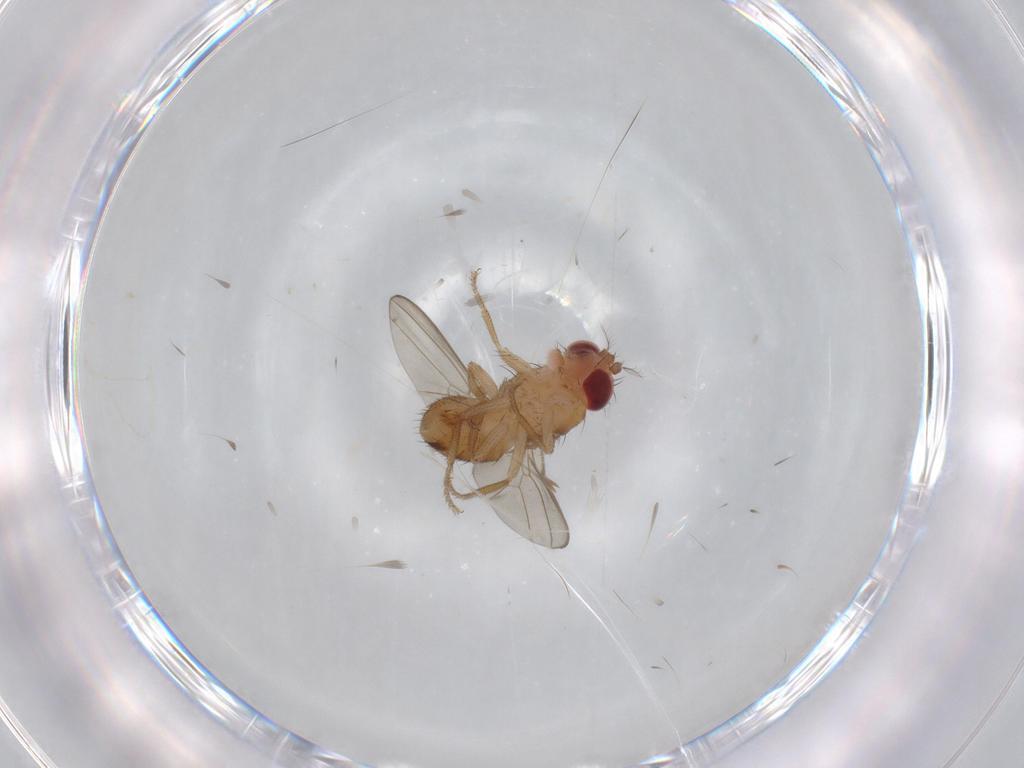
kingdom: Animalia
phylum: Arthropoda
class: Insecta
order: Diptera
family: Drosophilidae
